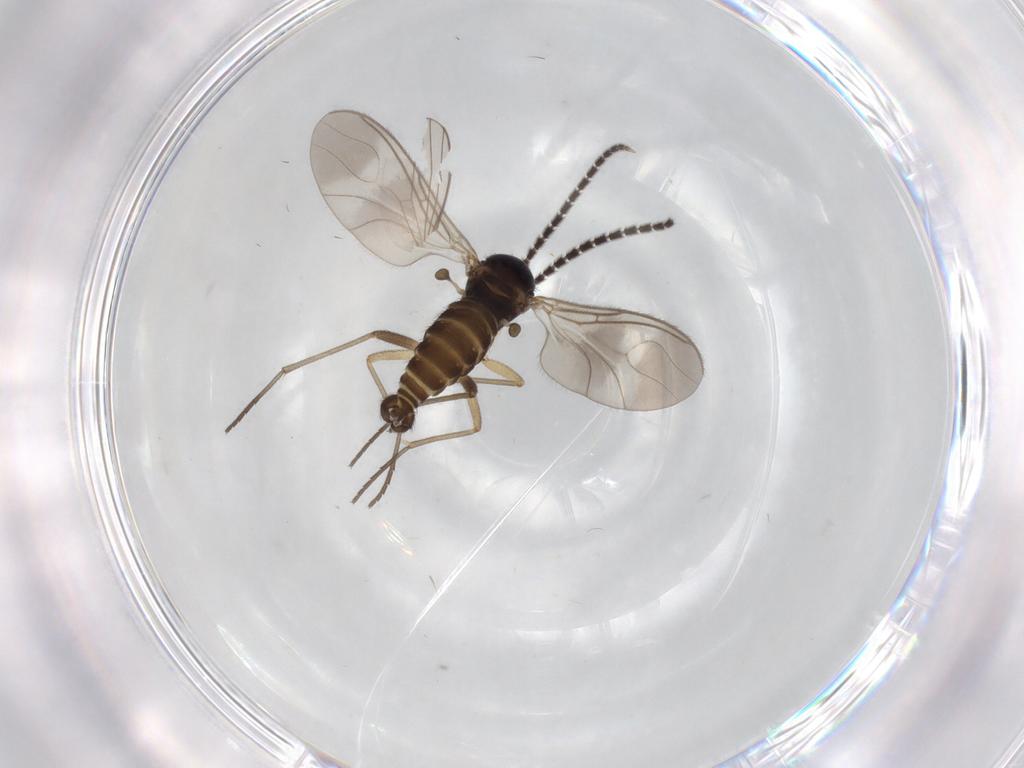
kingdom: Animalia
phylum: Arthropoda
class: Insecta
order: Diptera
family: Sciaridae
